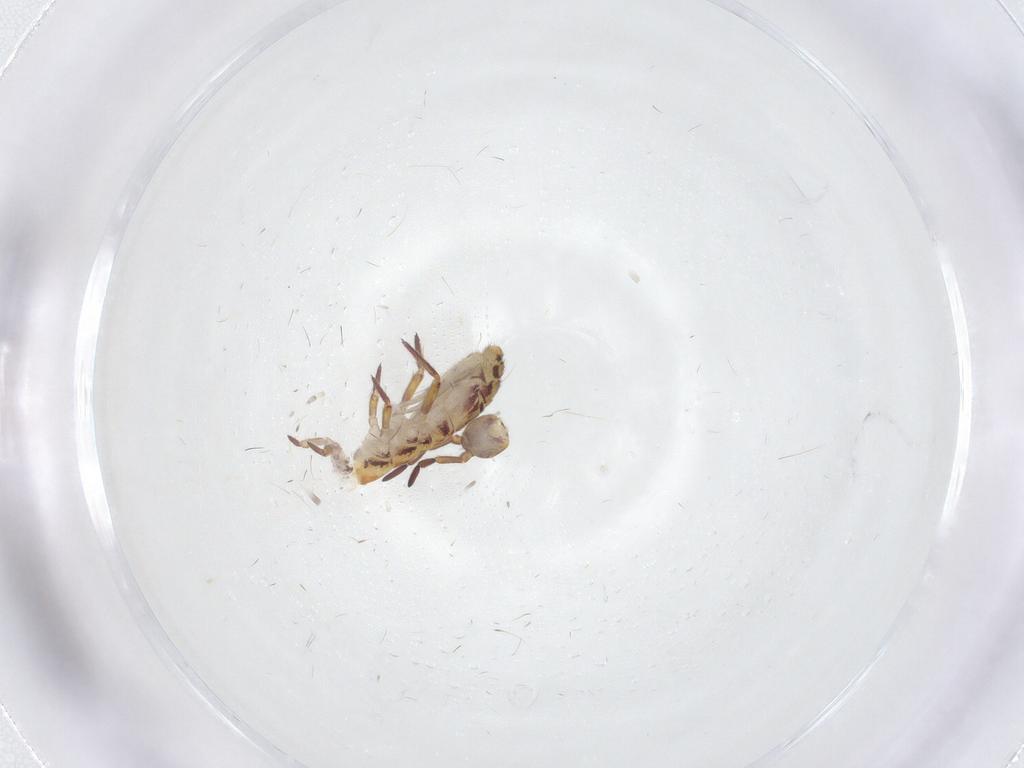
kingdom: Animalia
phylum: Arthropoda
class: Collembola
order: Entomobryomorpha
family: Isotomidae
